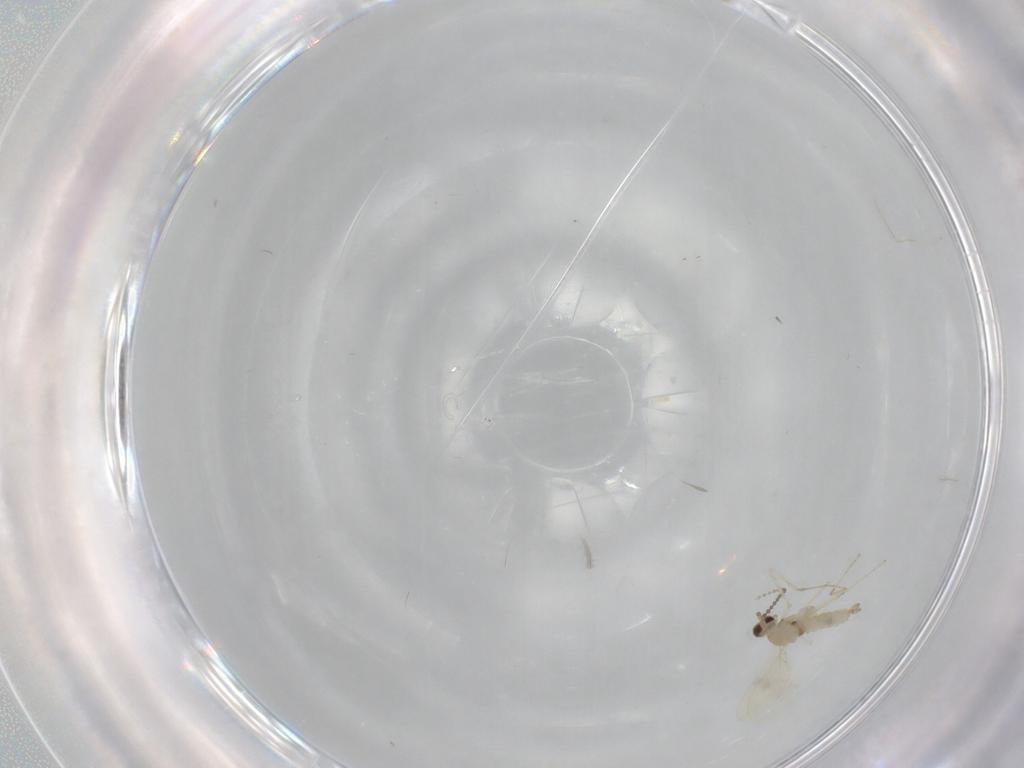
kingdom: Animalia
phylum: Arthropoda
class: Insecta
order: Diptera
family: Cecidomyiidae
